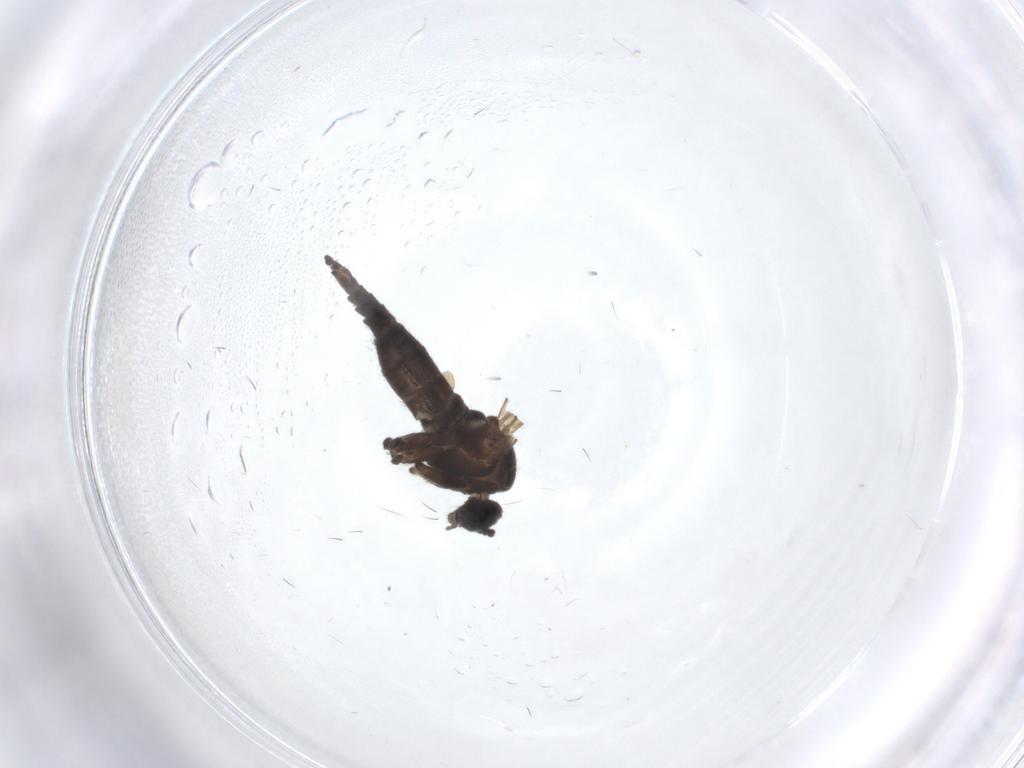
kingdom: Animalia
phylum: Arthropoda
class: Insecta
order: Diptera
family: Sciaridae
